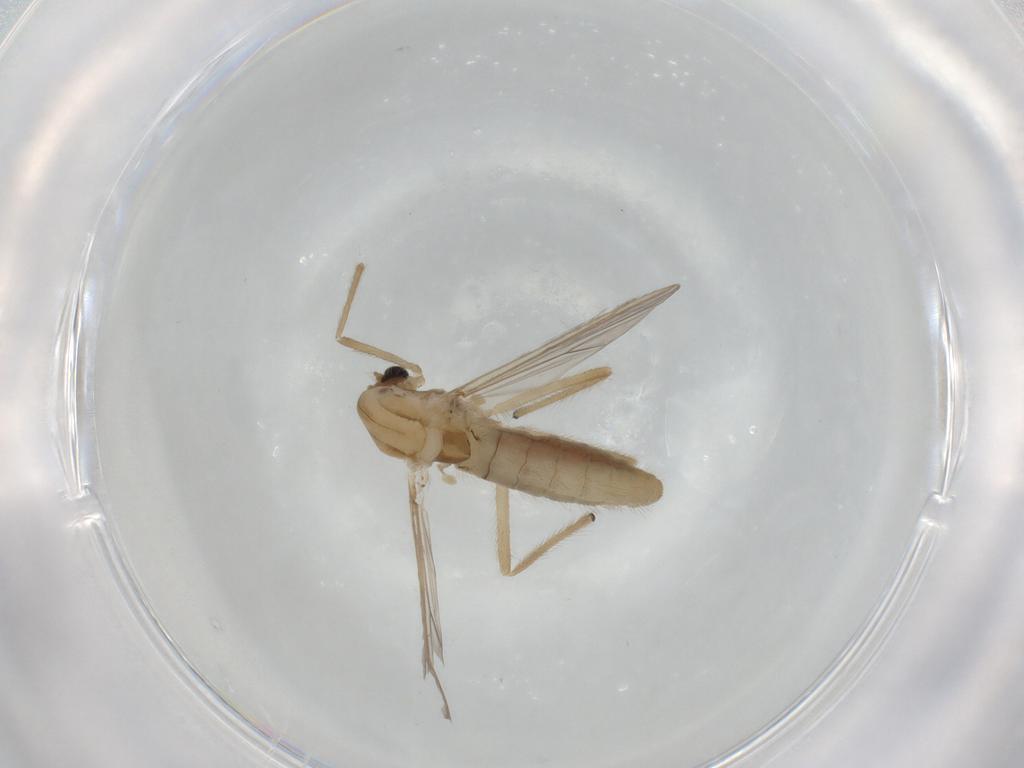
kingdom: Animalia
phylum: Arthropoda
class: Insecta
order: Diptera
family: Chironomidae
